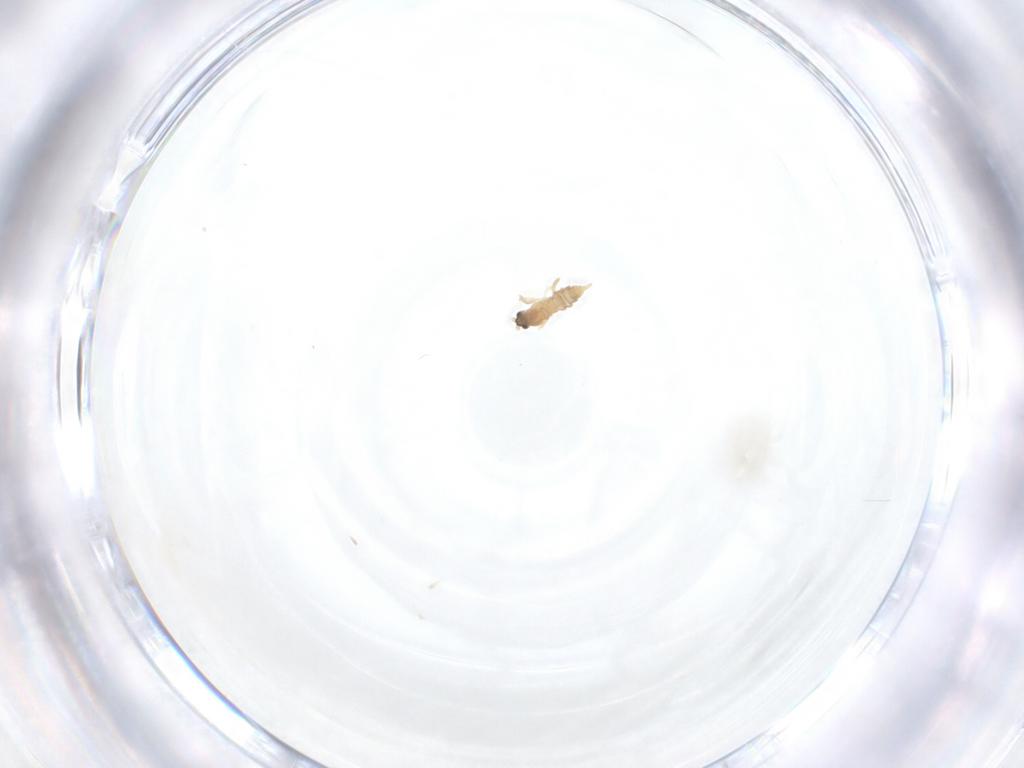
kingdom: Animalia
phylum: Arthropoda
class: Insecta
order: Diptera
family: Cecidomyiidae
